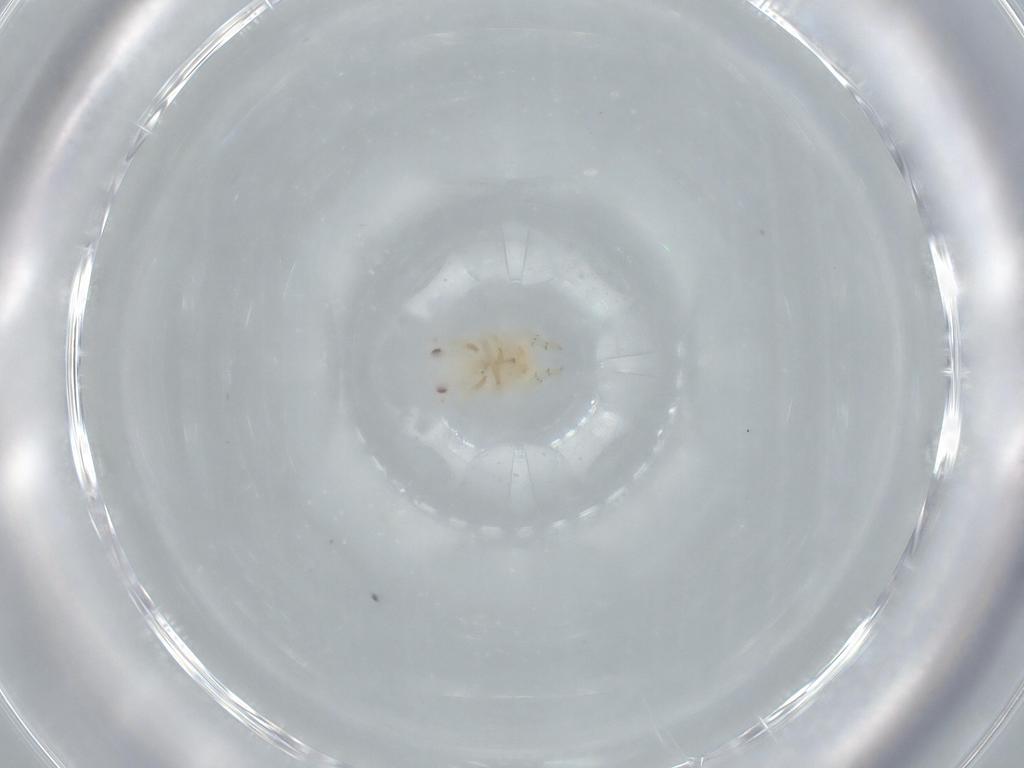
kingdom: Animalia
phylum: Arthropoda
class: Insecta
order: Hemiptera
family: Flatidae
